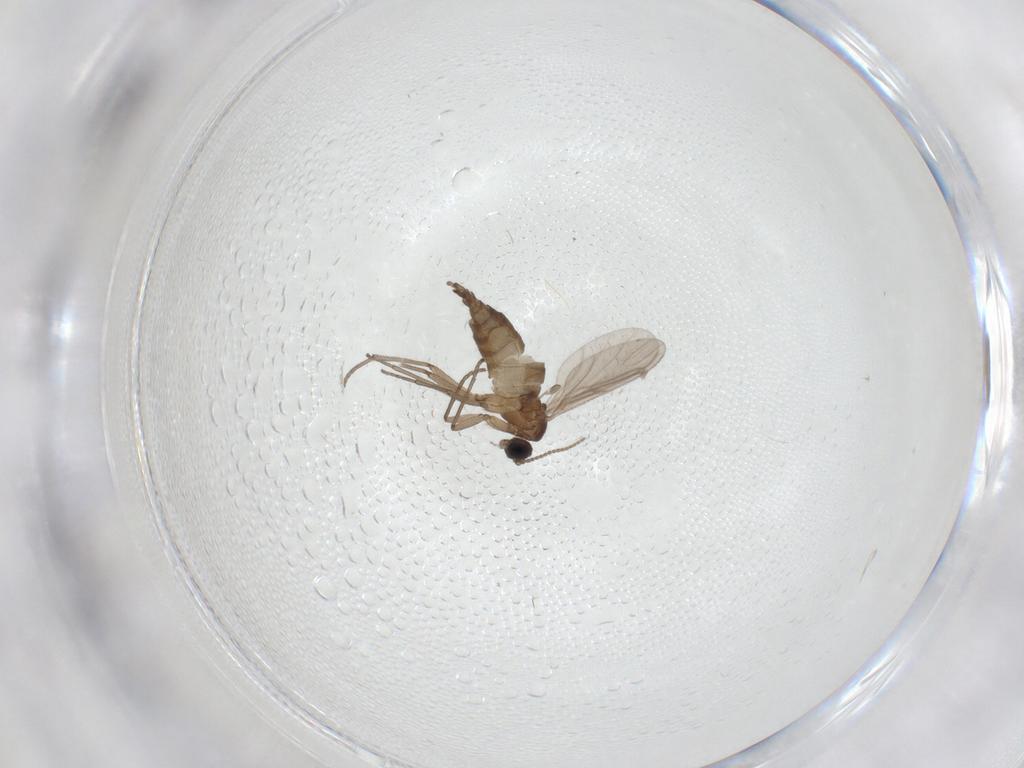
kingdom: Animalia
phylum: Arthropoda
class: Insecta
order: Diptera
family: Sciaridae
